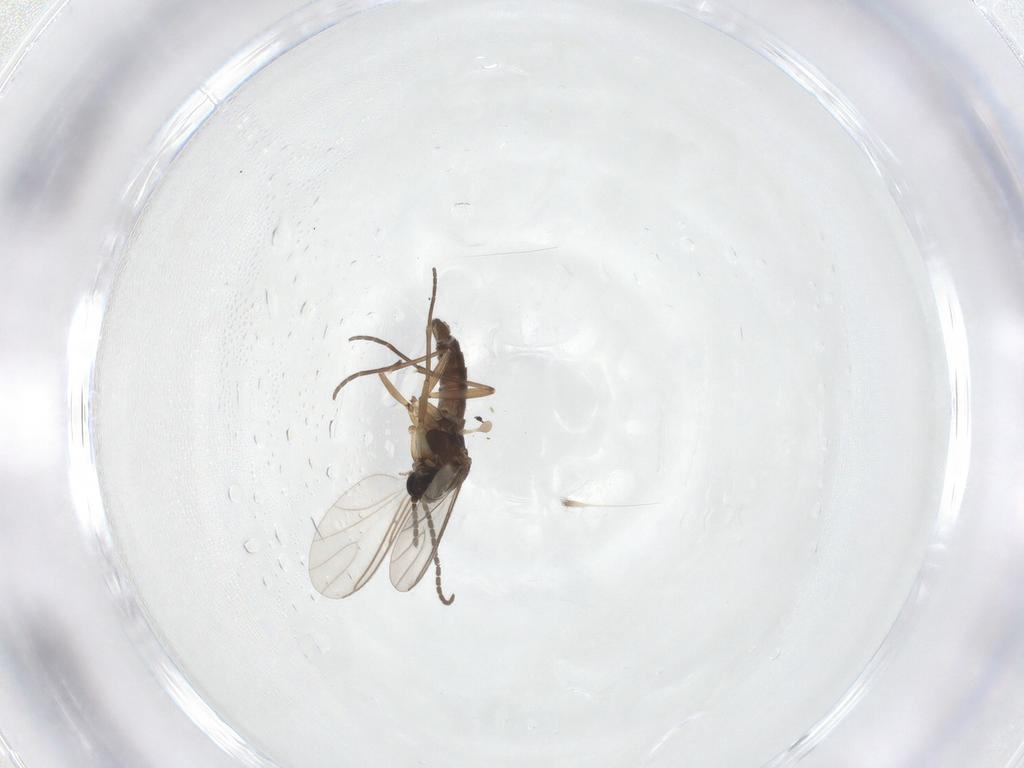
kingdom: Animalia
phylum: Arthropoda
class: Insecta
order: Diptera
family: Sciaridae
